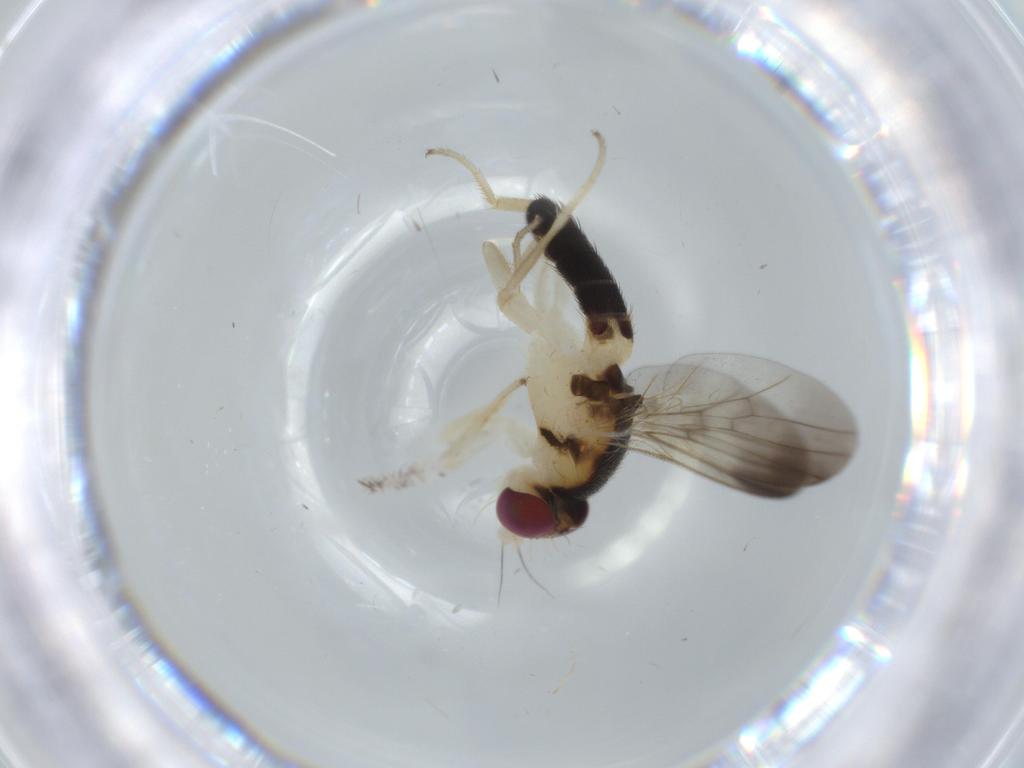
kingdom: Animalia
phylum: Arthropoda
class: Insecta
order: Diptera
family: Clusiidae
